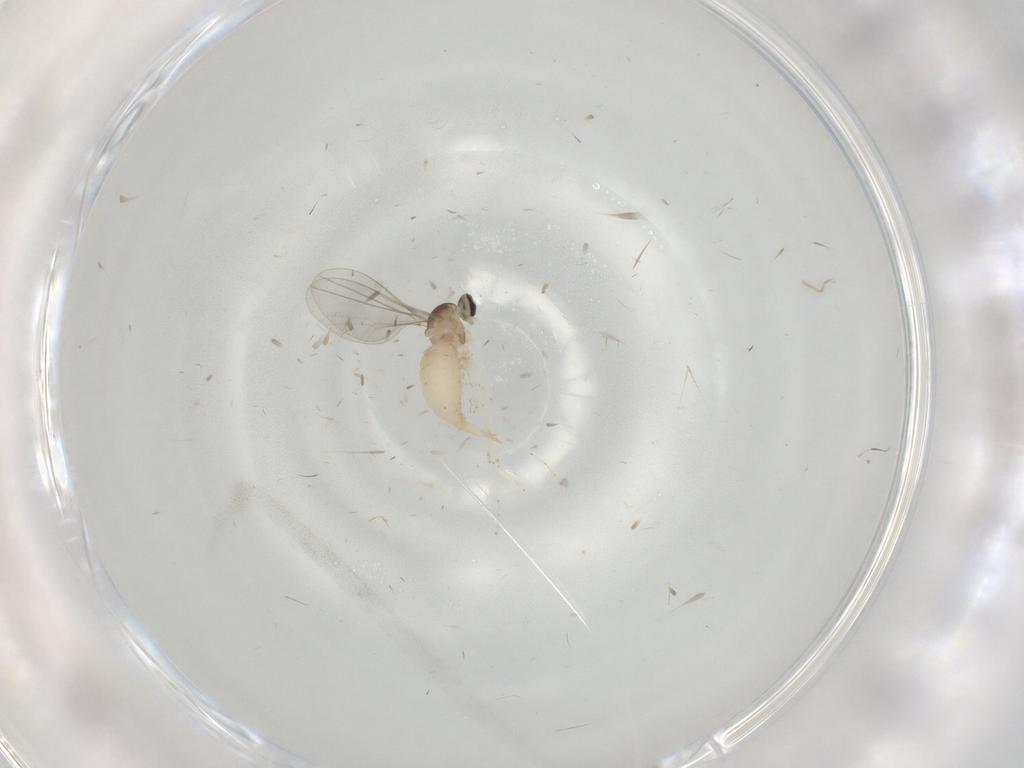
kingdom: Animalia
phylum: Arthropoda
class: Insecta
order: Diptera
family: Cecidomyiidae
